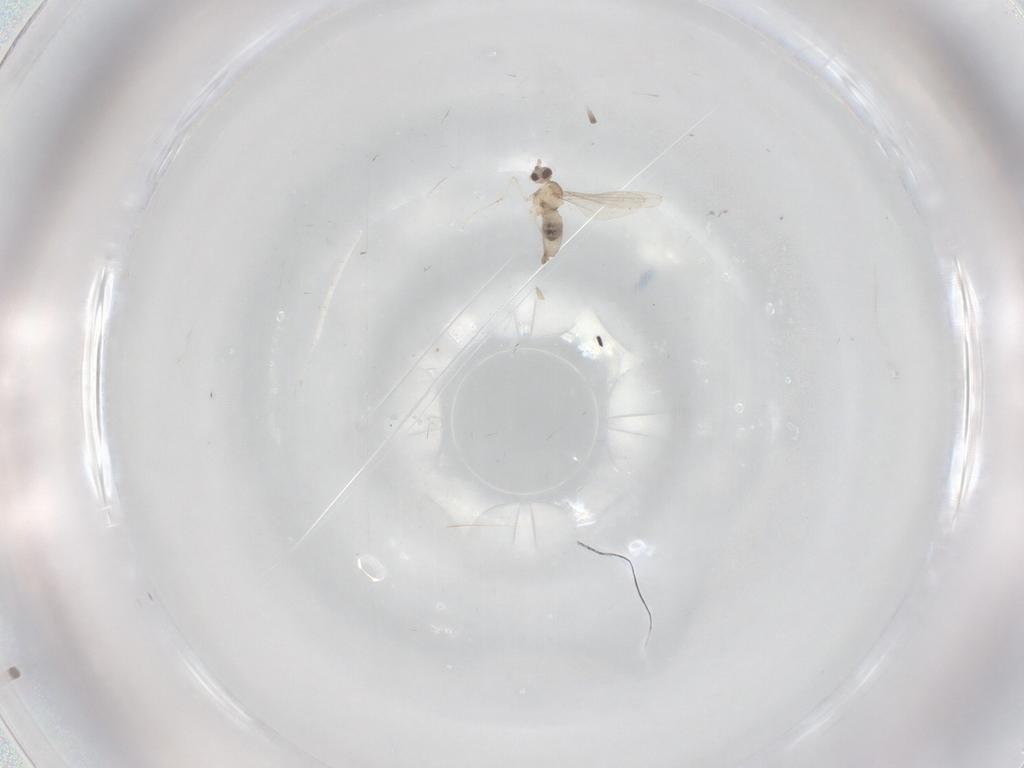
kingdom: Animalia
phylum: Arthropoda
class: Insecta
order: Diptera
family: Cecidomyiidae
